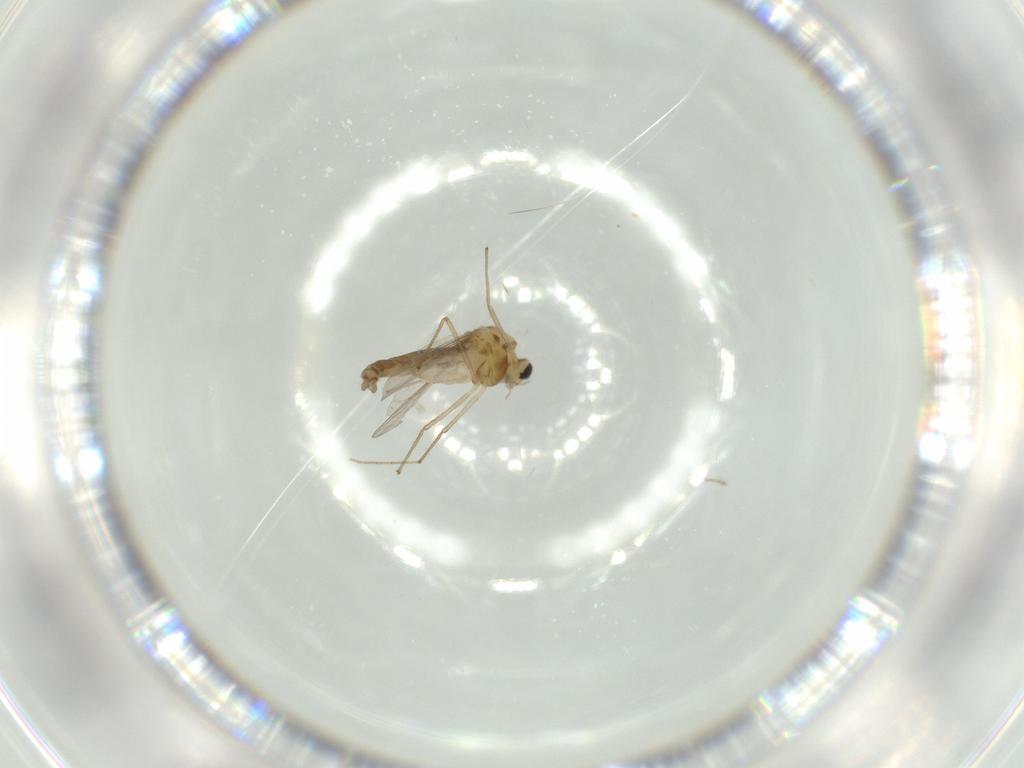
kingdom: Animalia
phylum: Arthropoda
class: Insecta
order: Diptera
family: Chironomidae
